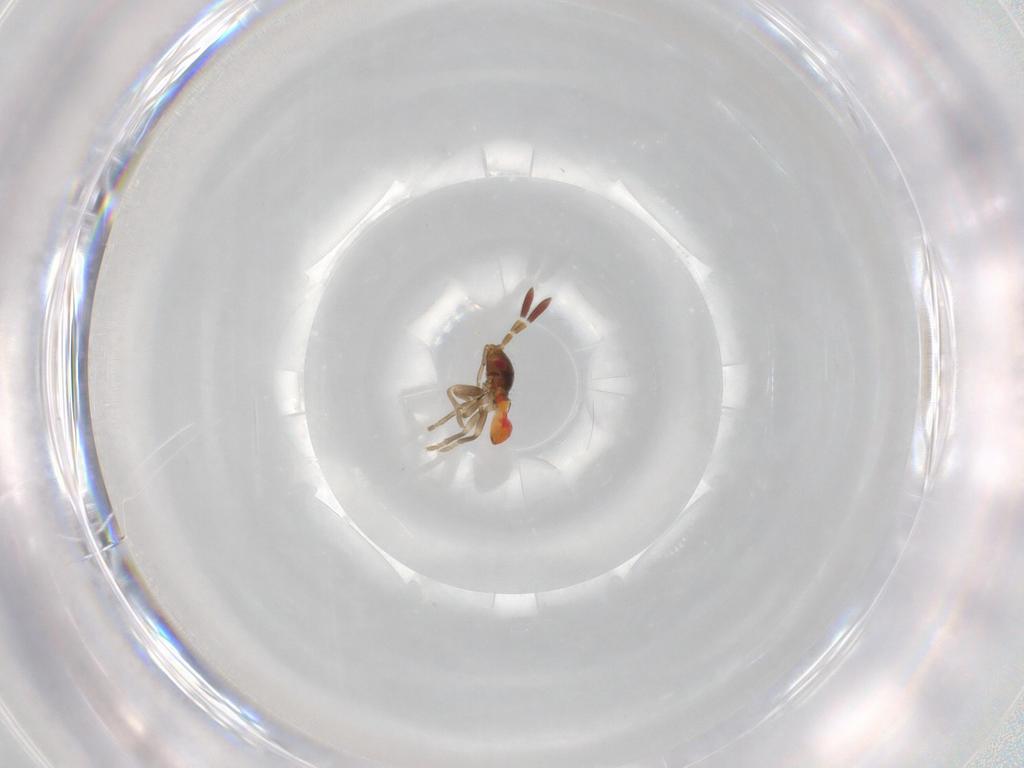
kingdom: Animalia
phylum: Arthropoda
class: Insecta
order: Hemiptera
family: Rhyparochromidae
